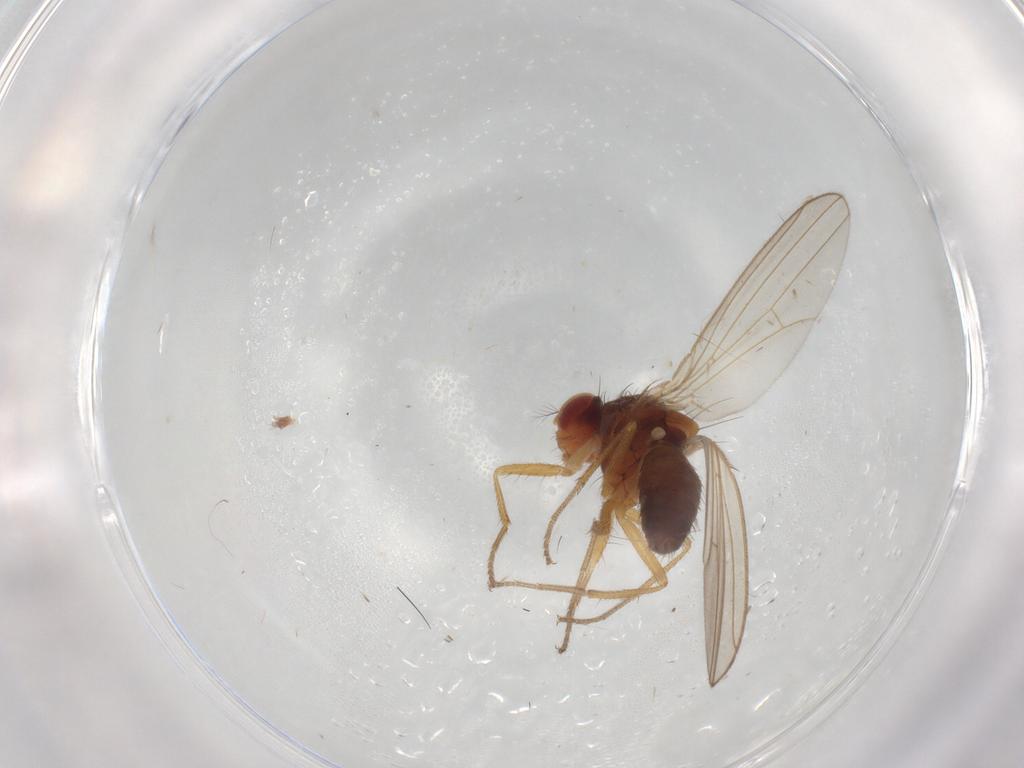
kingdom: Animalia
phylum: Arthropoda
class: Insecta
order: Diptera
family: Drosophilidae
